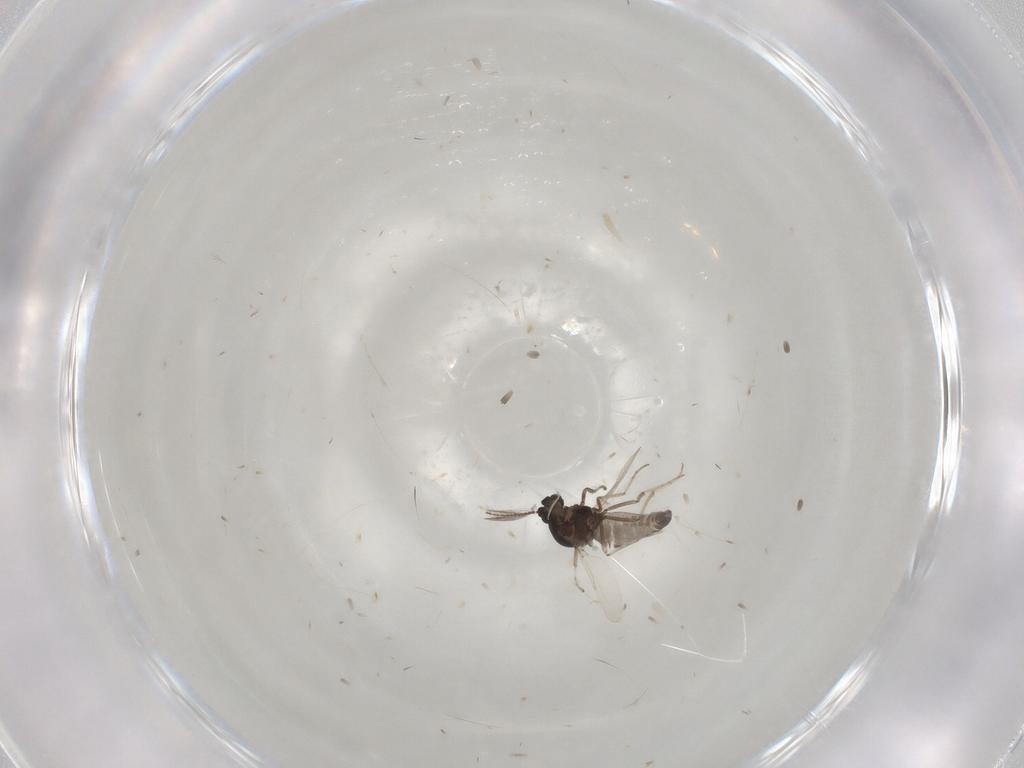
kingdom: Animalia
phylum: Arthropoda
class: Insecta
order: Diptera
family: Ceratopogonidae
